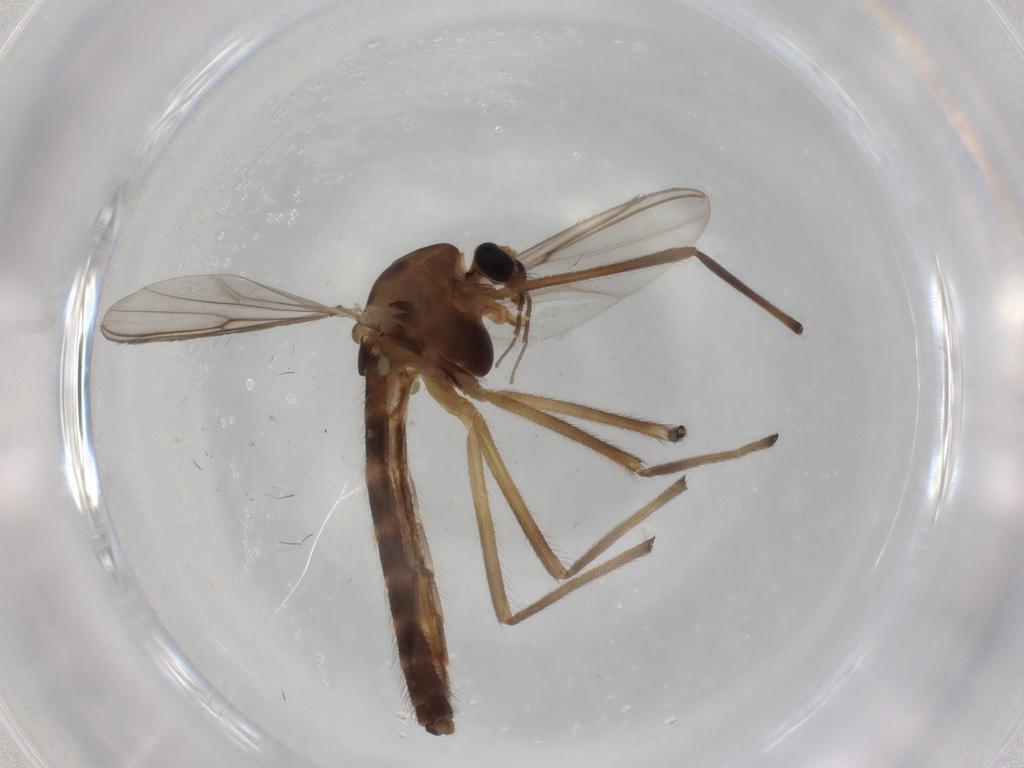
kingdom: Animalia
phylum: Arthropoda
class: Insecta
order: Diptera
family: Chironomidae
